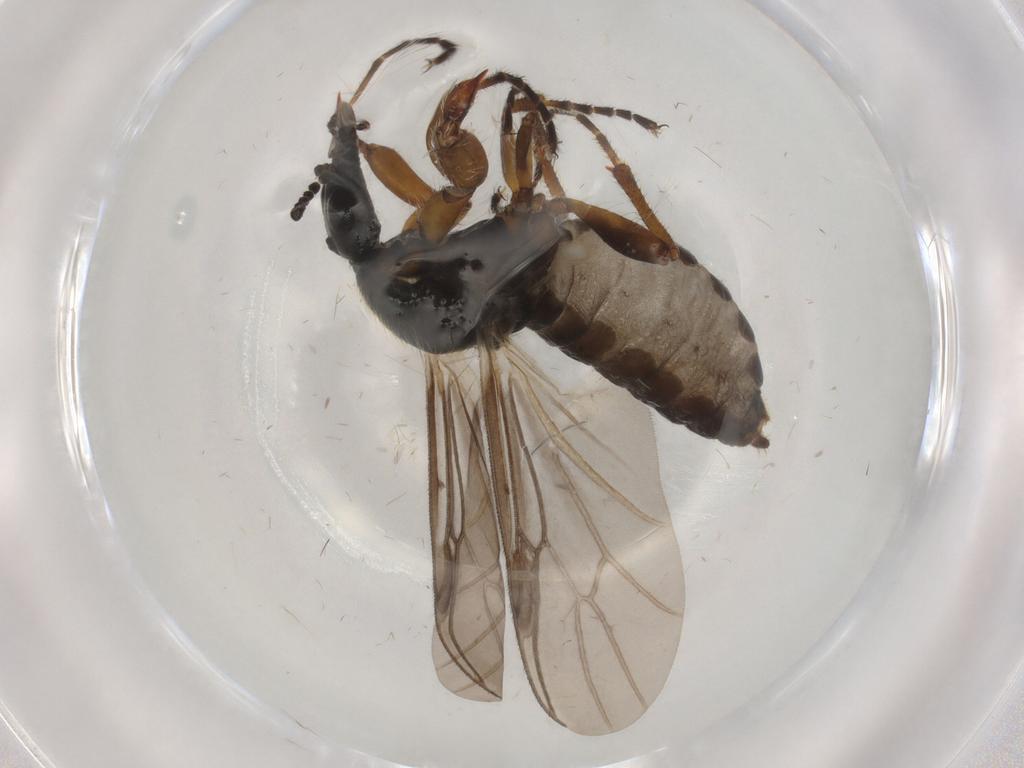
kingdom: Animalia
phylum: Arthropoda
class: Insecta
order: Diptera
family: Bibionidae
